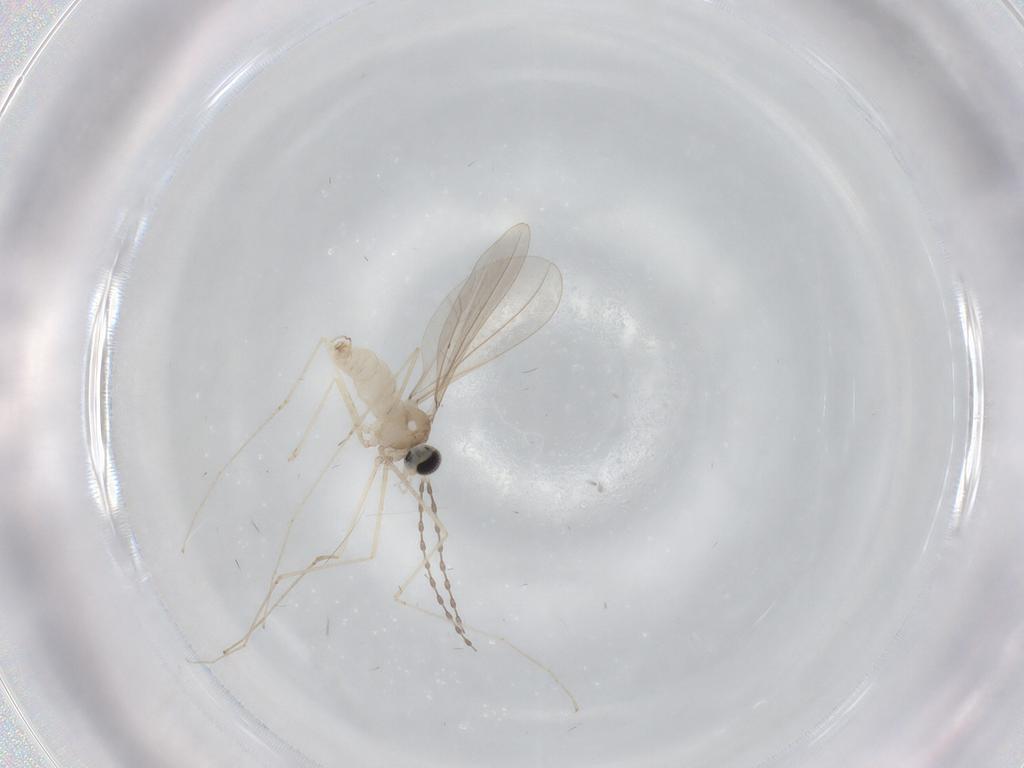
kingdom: Animalia
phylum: Arthropoda
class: Insecta
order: Diptera
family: Cecidomyiidae
